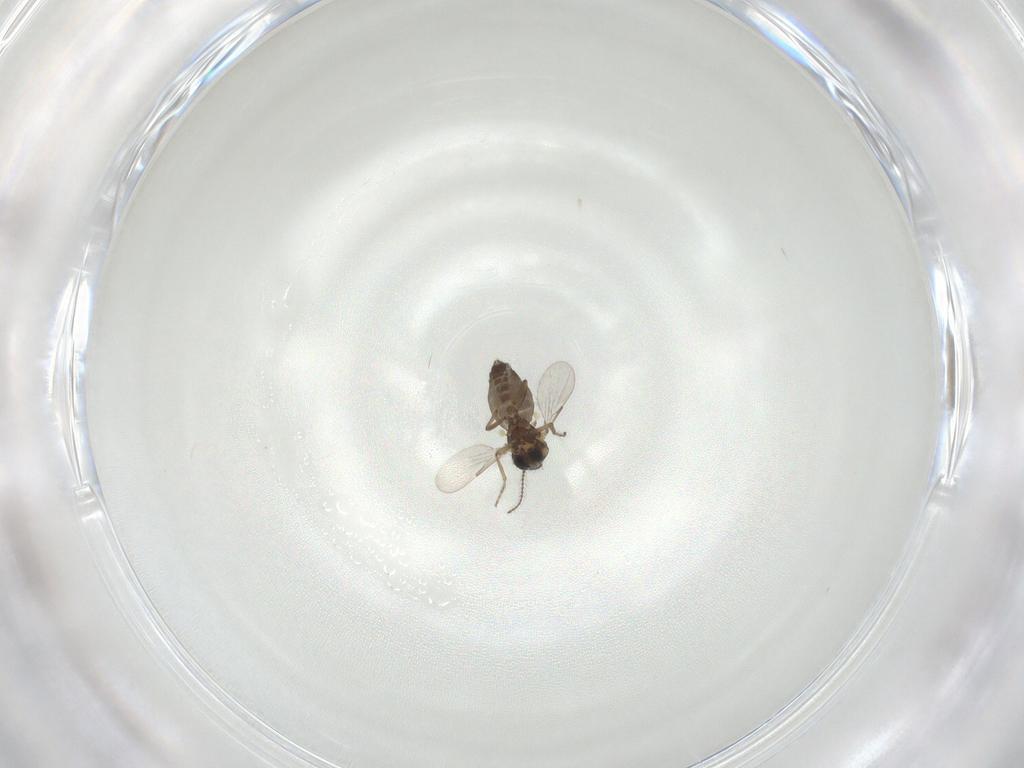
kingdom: Animalia
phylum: Arthropoda
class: Insecta
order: Diptera
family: Ceratopogonidae
